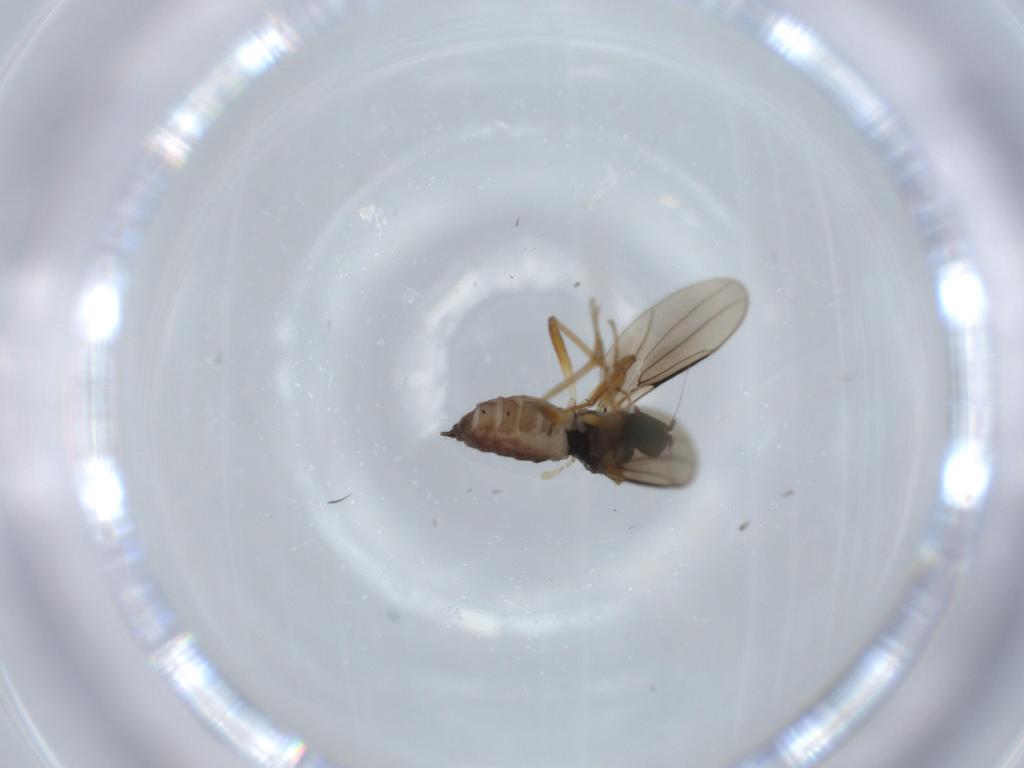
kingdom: Animalia
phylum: Arthropoda
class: Insecta
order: Diptera
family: Hybotidae
